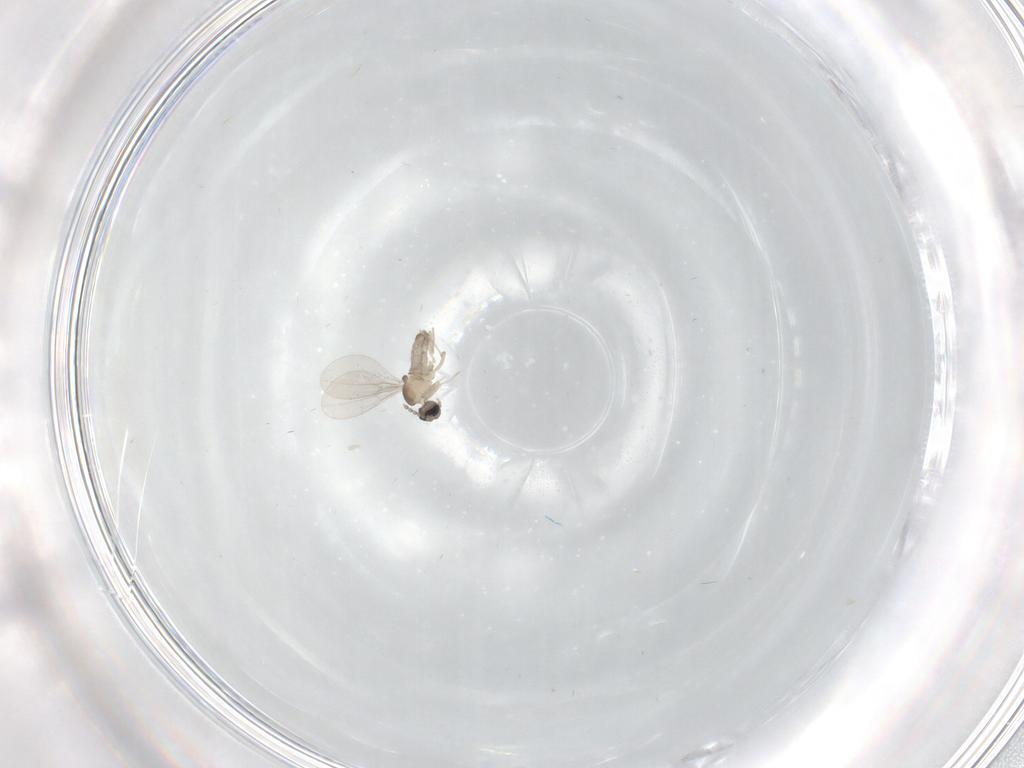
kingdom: Animalia
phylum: Arthropoda
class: Insecta
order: Diptera
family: Cecidomyiidae
